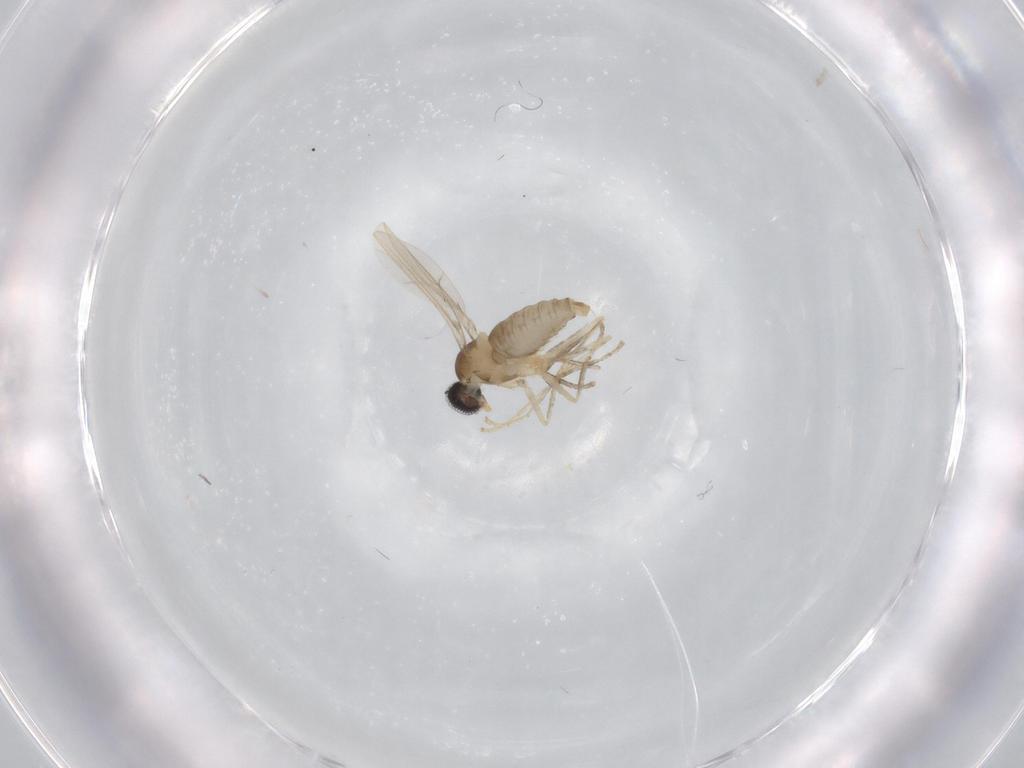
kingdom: Animalia
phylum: Arthropoda
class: Insecta
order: Diptera
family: Cecidomyiidae
